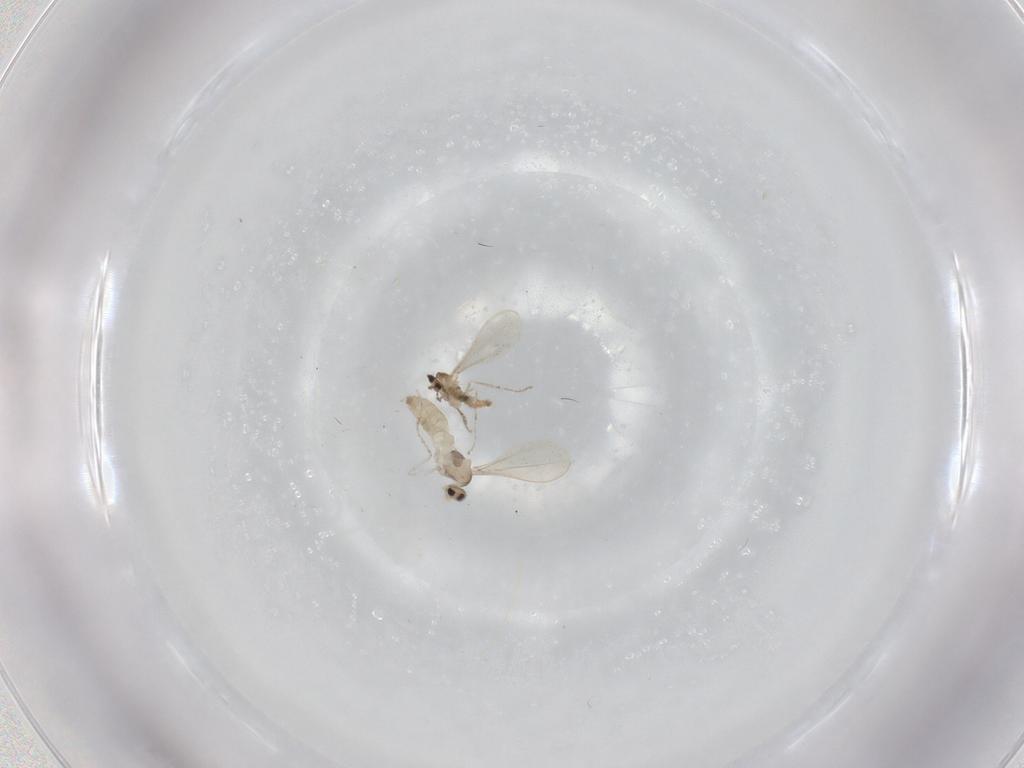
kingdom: Animalia
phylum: Arthropoda
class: Insecta
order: Diptera
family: Cecidomyiidae
